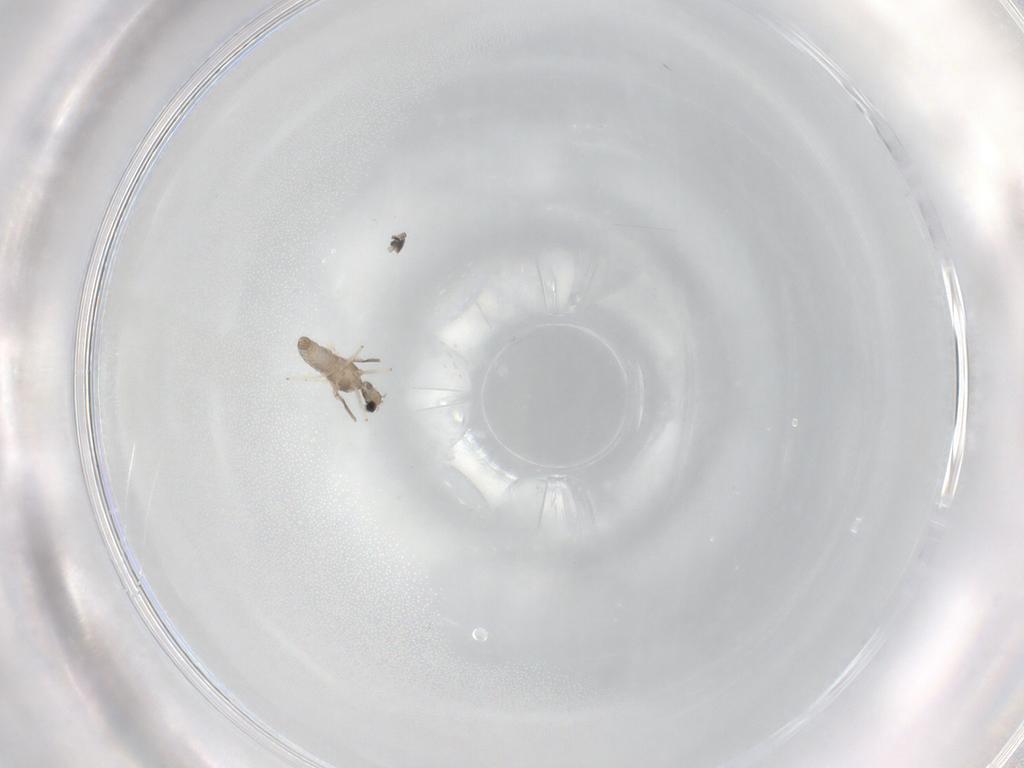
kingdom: Animalia
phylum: Arthropoda
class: Insecta
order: Diptera
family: Cecidomyiidae
